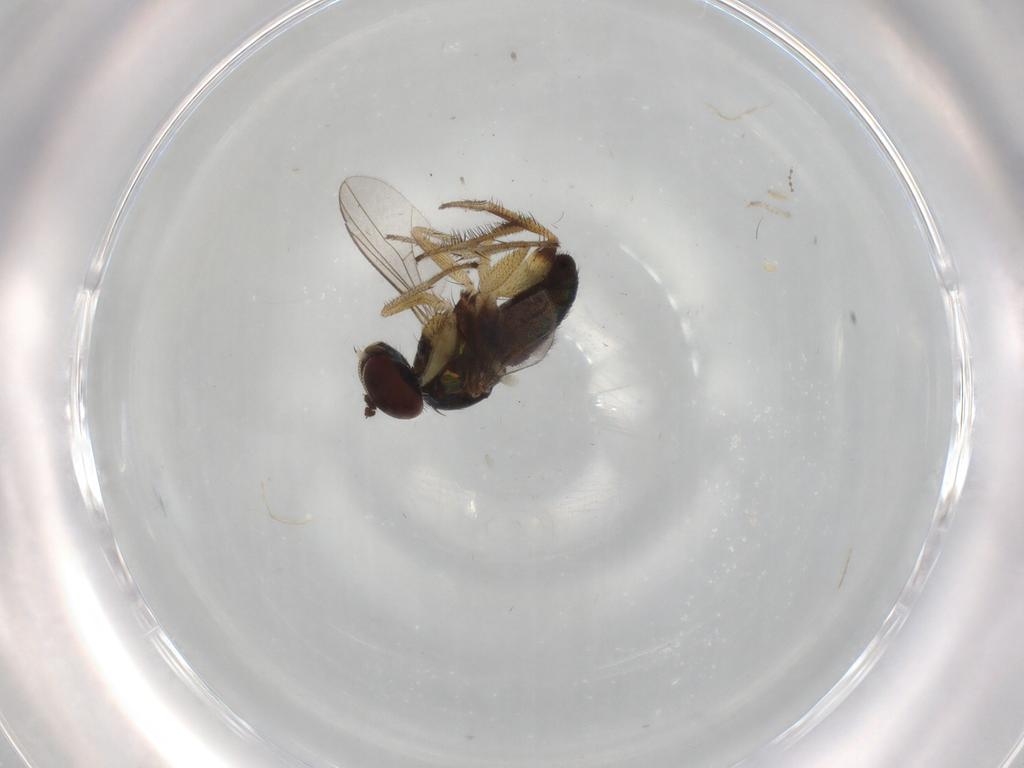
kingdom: Animalia
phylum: Arthropoda
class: Insecta
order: Diptera
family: Dolichopodidae
